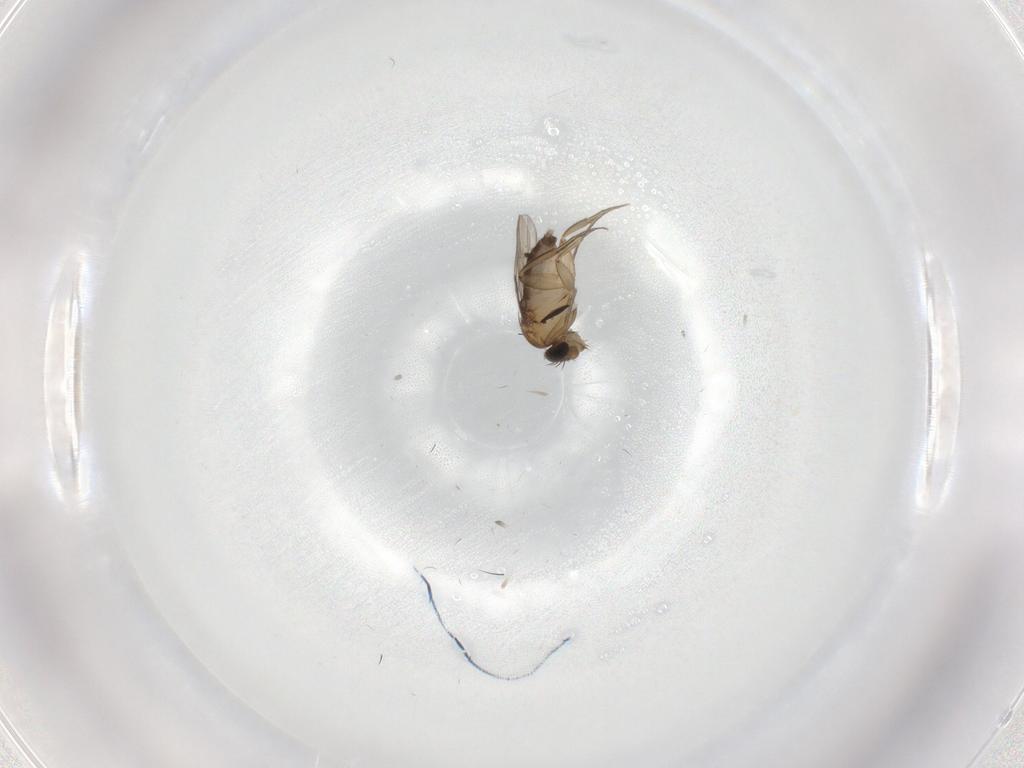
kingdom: Animalia
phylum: Arthropoda
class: Insecta
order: Diptera
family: Phoridae
